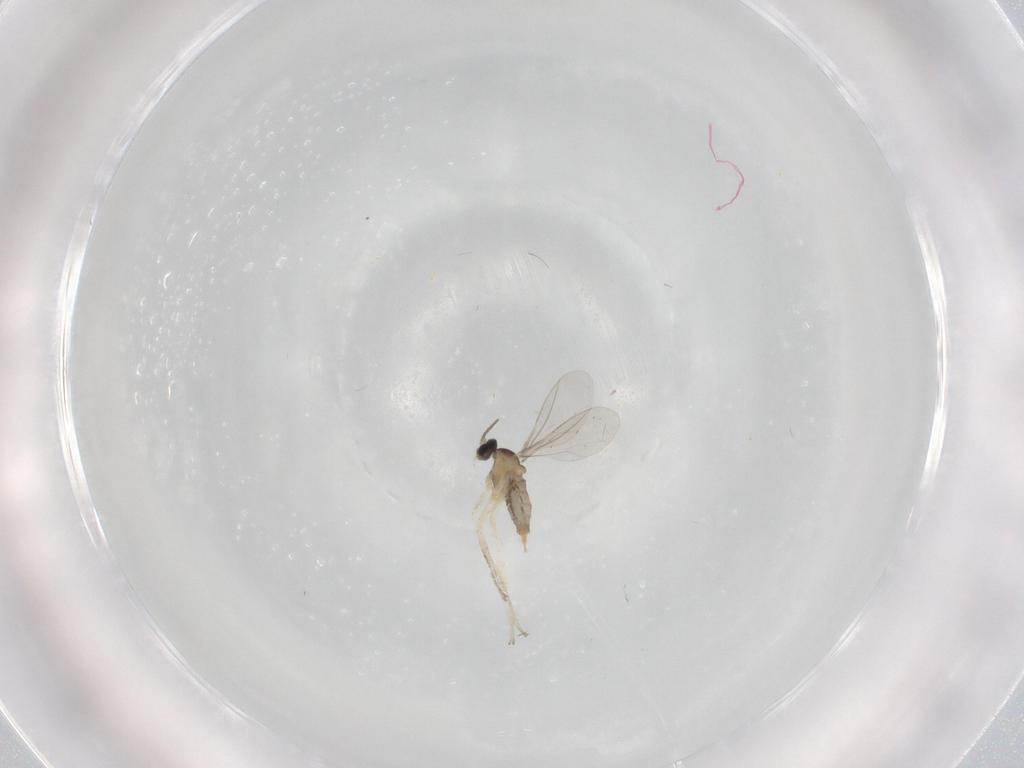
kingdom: Animalia
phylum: Arthropoda
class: Insecta
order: Diptera
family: Cecidomyiidae
